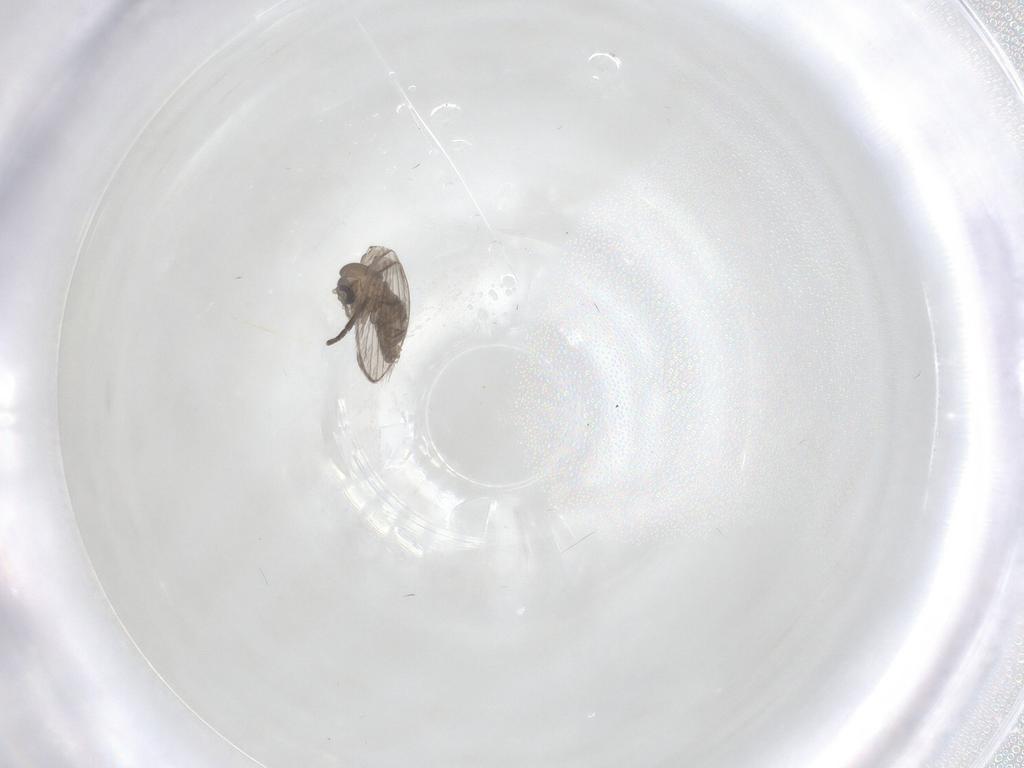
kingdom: Animalia
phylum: Arthropoda
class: Insecta
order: Diptera
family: Psychodidae
